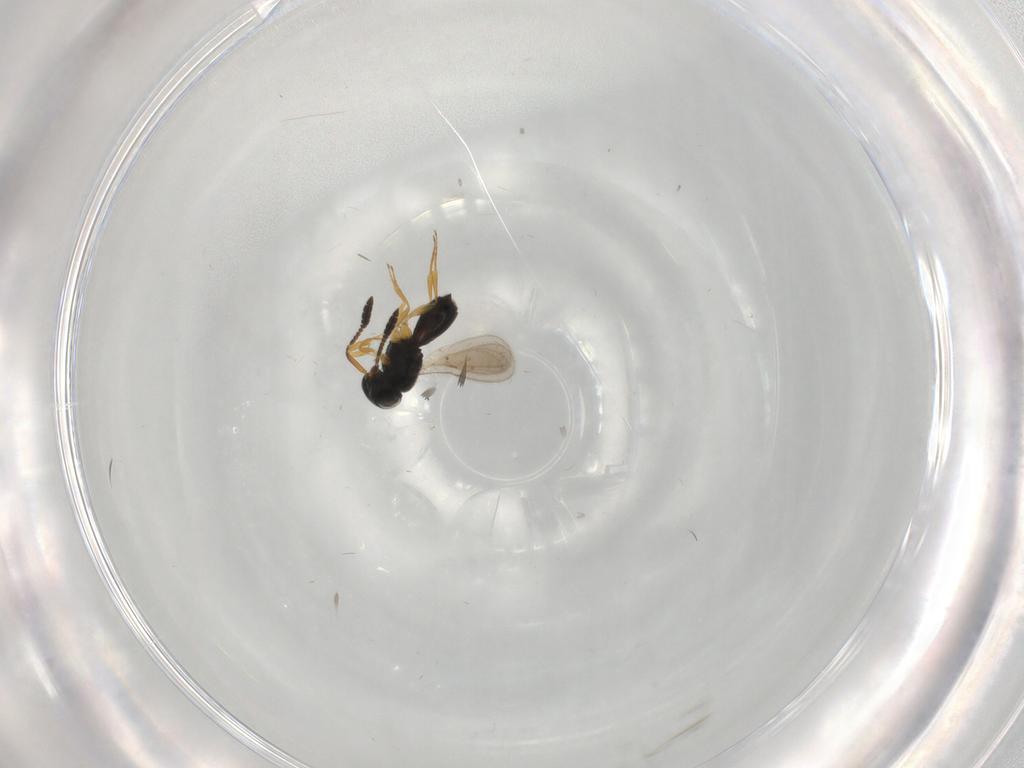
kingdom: Animalia
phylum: Arthropoda
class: Insecta
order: Hymenoptera
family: Scelionidae
